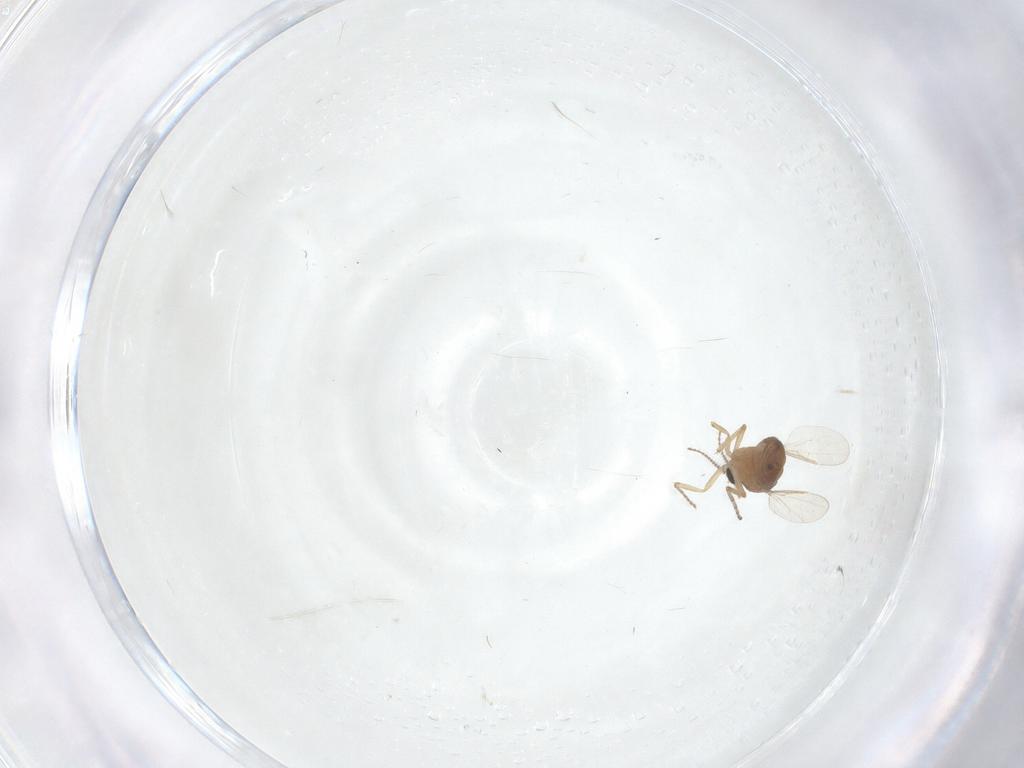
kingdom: Animalia
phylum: Arthropoda
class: Insecta
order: Diptera
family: Ceratopogonidae
